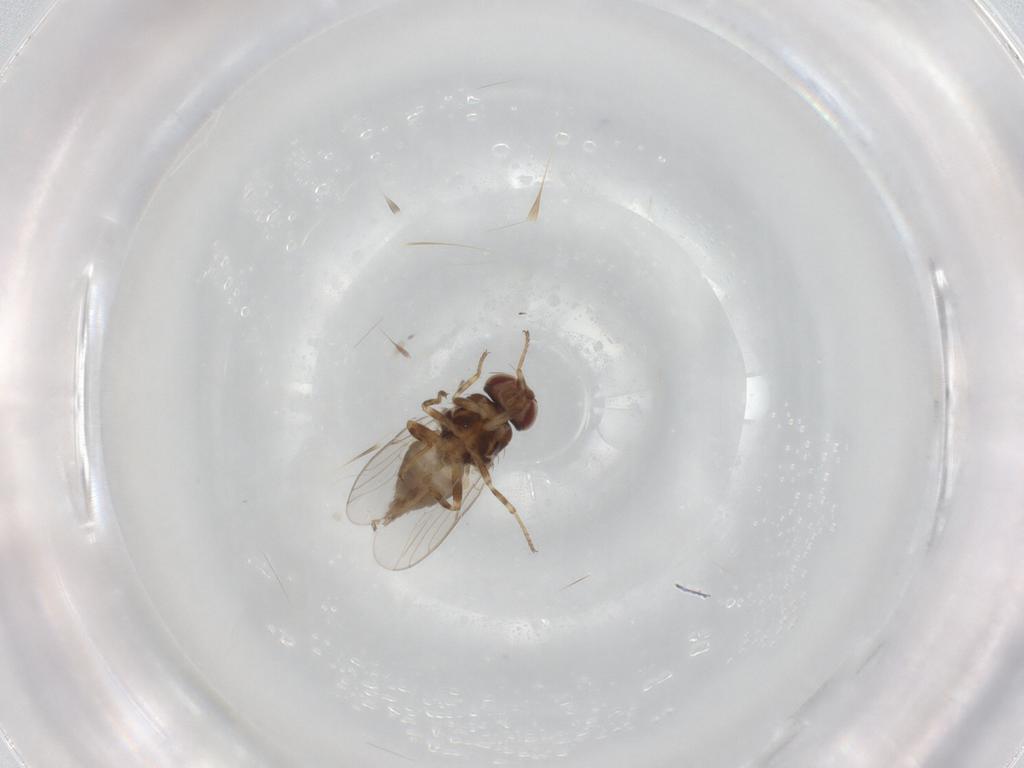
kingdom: Animalia
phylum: Arthropoda
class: Insecta
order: Diptera
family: Chloropidae
